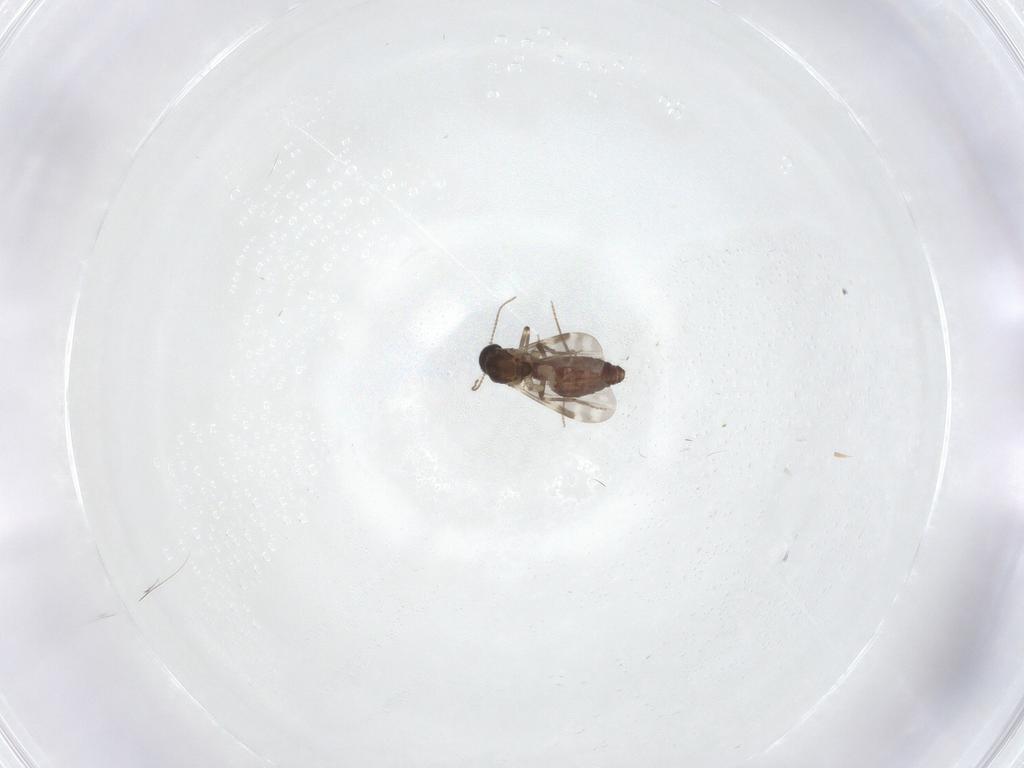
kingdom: Animalia
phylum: Arthropoda
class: Insecta
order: Diptera
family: Ceratopogonidae
